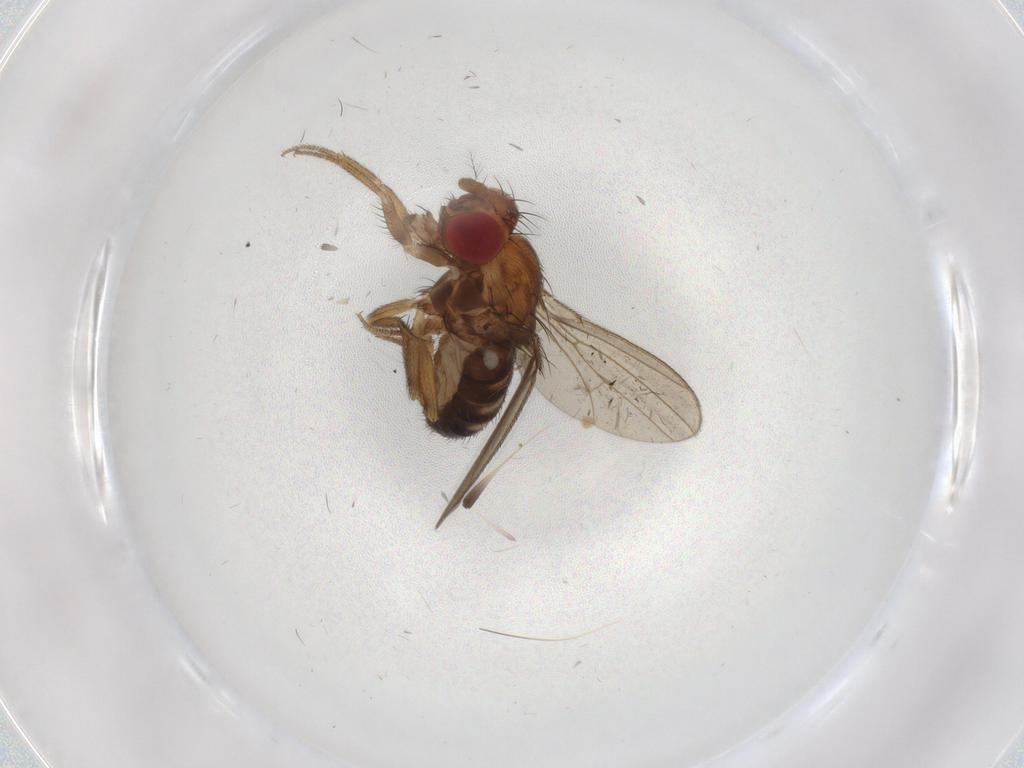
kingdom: Animalia
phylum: Arthropoda
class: Insecta
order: Diptera
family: Drosophilidae
